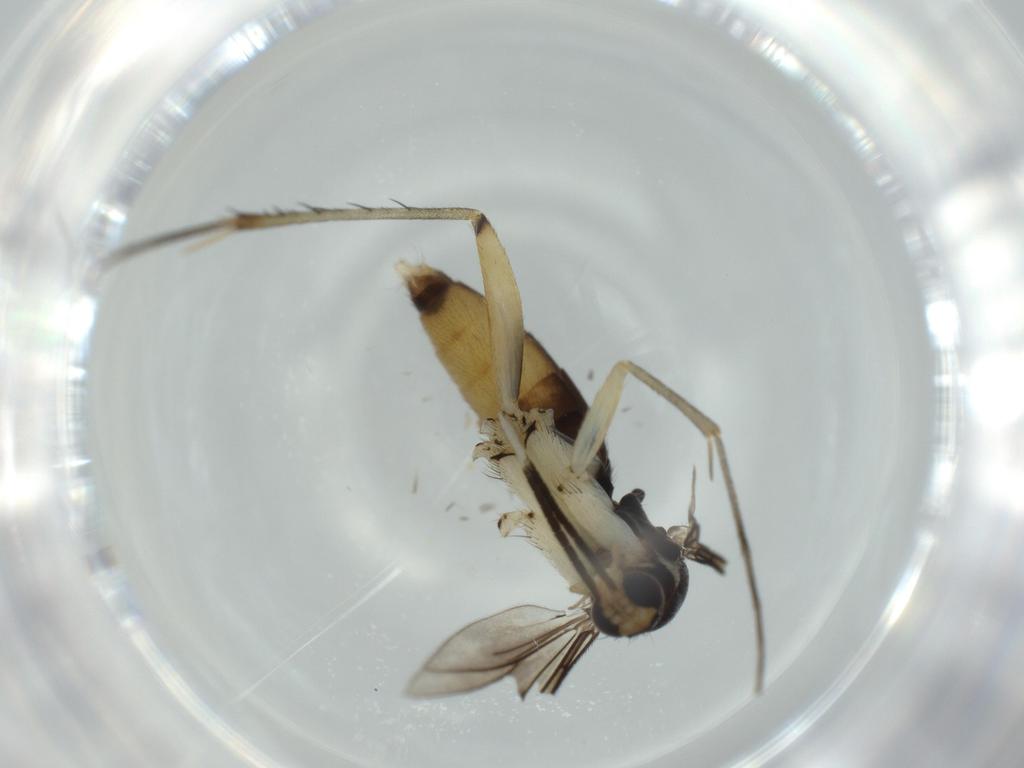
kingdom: Animalia
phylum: Arthropoda
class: Insecta
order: Diptera
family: Mycetophilidae
